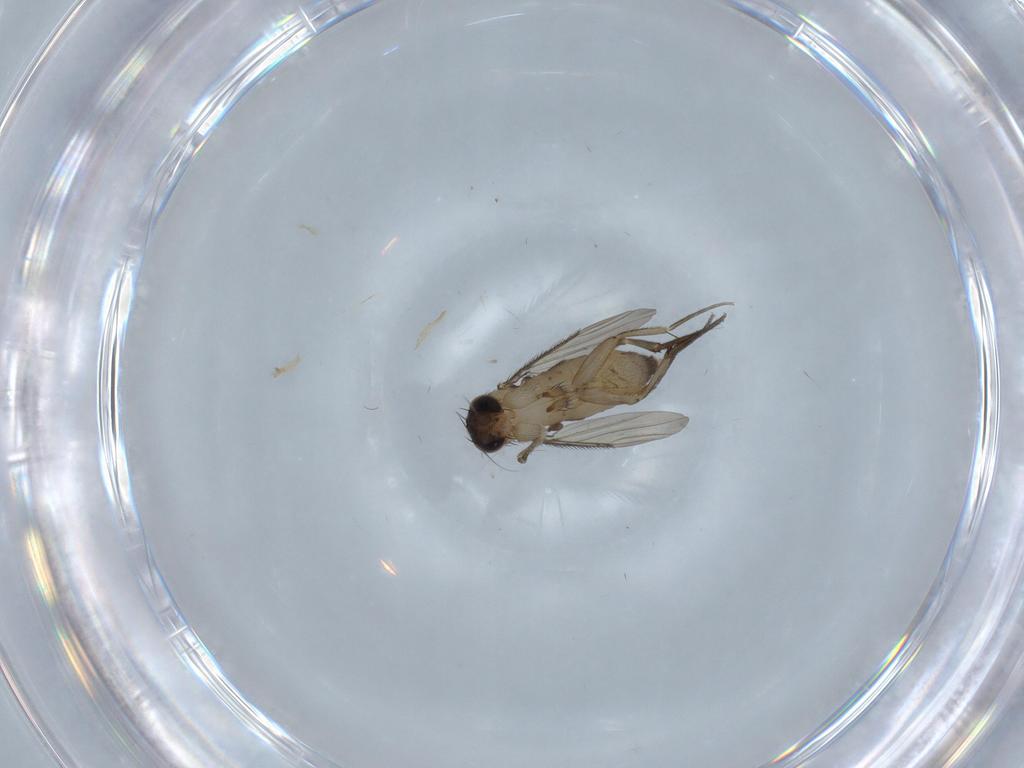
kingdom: Animalia
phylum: Arthropoda
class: Insecta
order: Diptera
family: Phoridae
